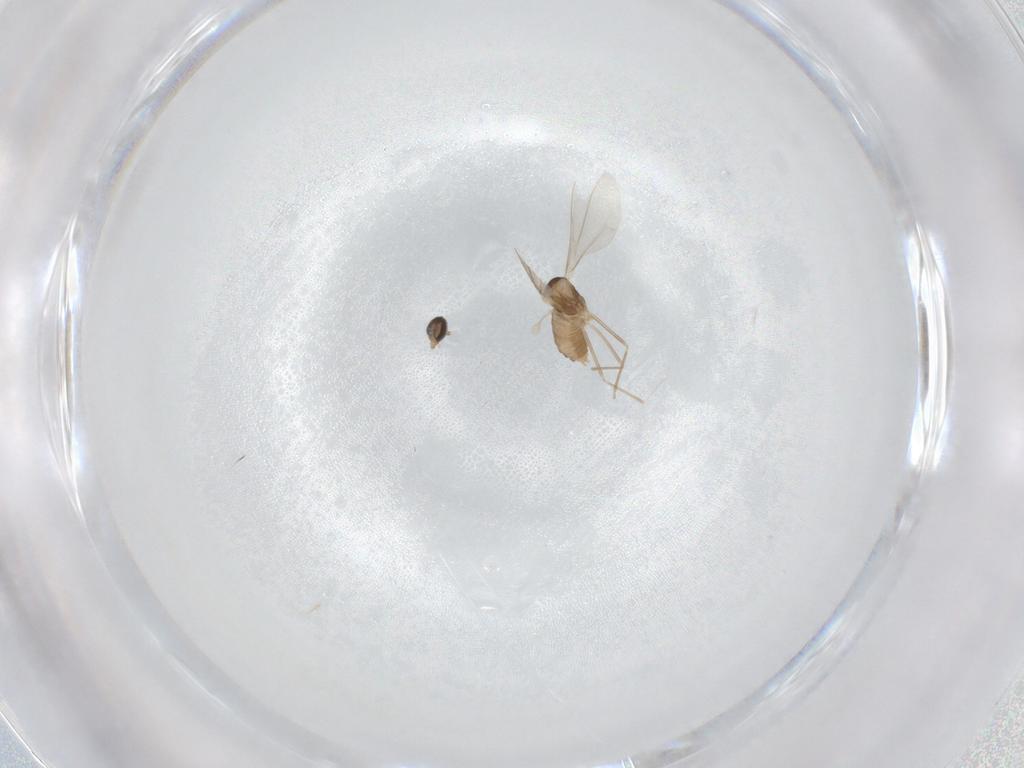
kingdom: Animalia
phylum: Arthropoda
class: Insecta
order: Diptera
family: Cecidomyiidae
